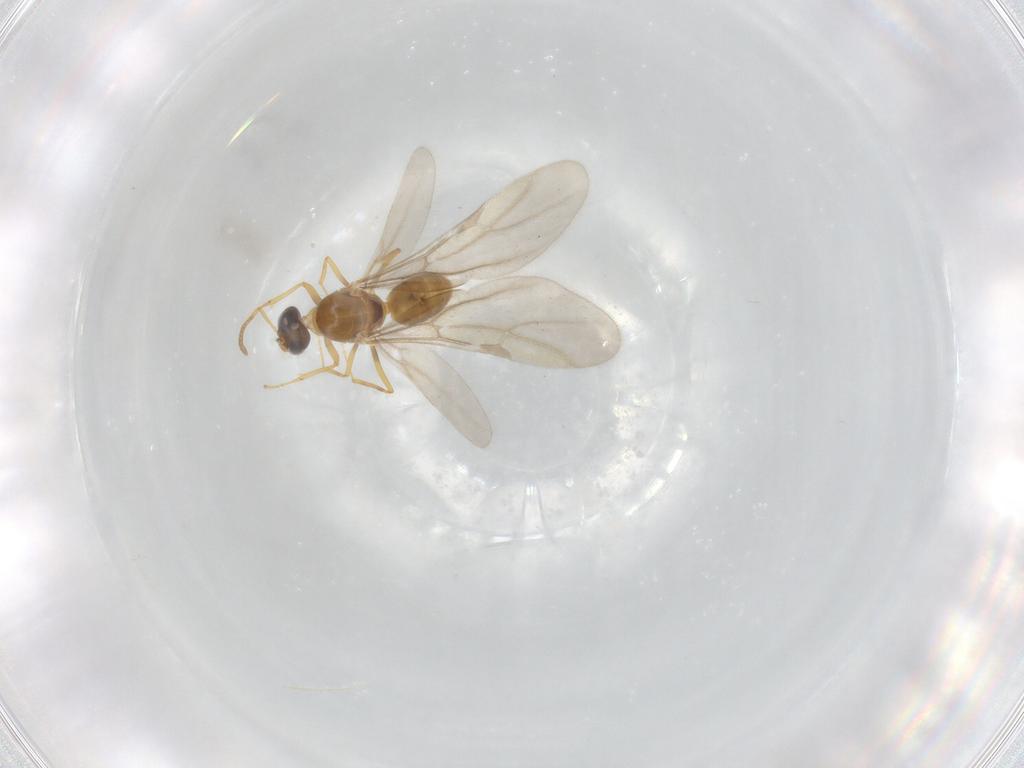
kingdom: Animalia
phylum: Arthropoda
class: Insecta
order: Hymenoptera
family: Formicidae
